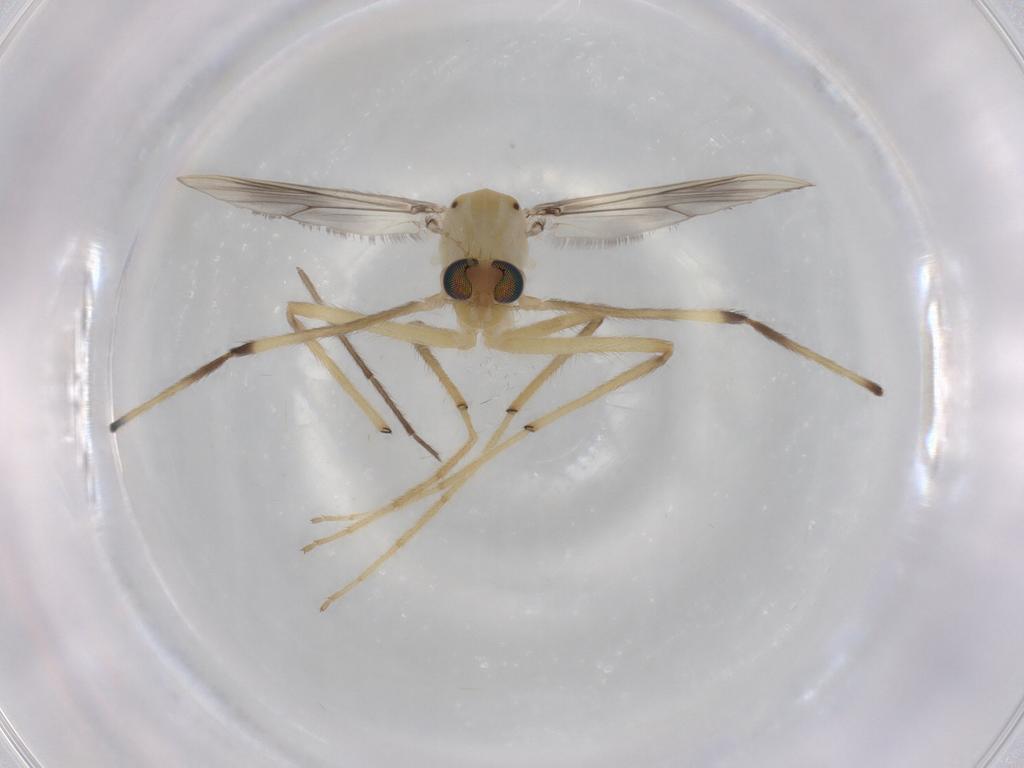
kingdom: Animalia
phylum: Arthropoda
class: Insecta
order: Diptera
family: Chironomidae
